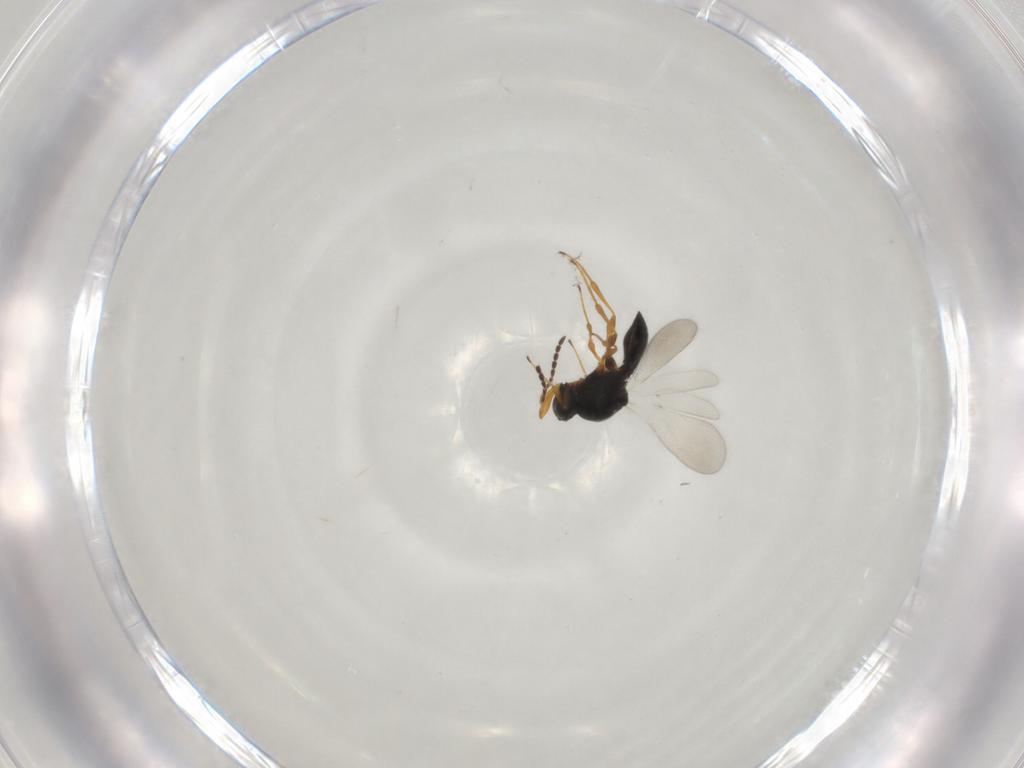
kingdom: Animalia
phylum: Arthropoda
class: Insecta
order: Hymenoptera
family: Platygastridae
